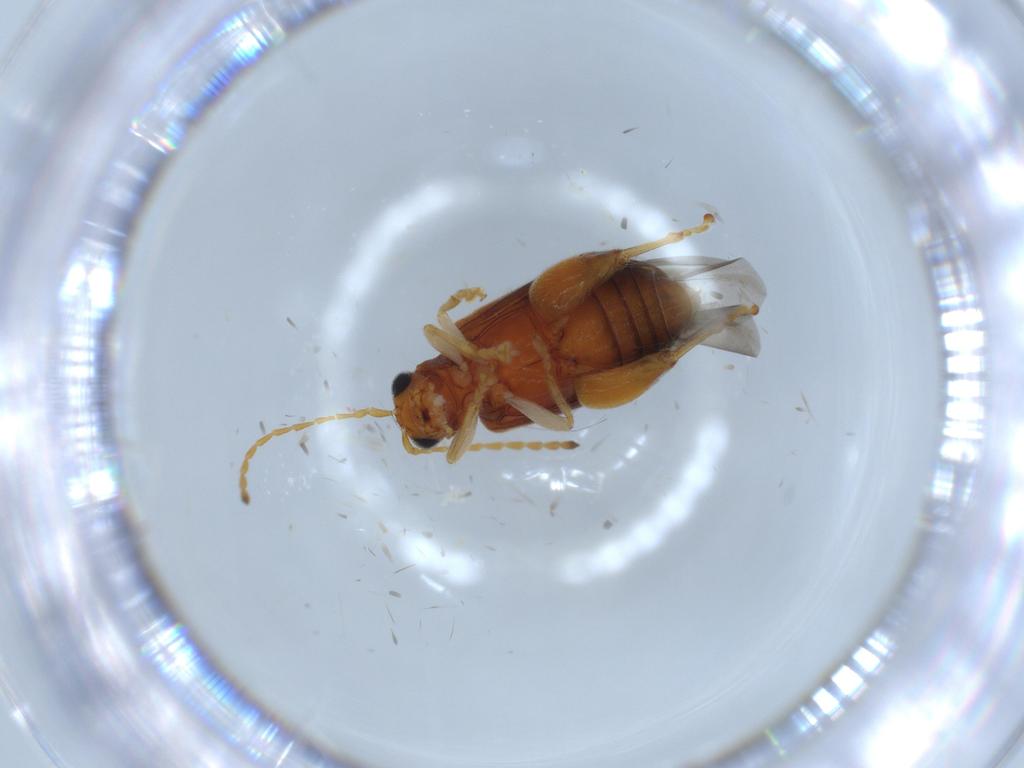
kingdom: Animalia
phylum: Arthropoda
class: Insecta
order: Coleoptera
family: Chrysomelidae
